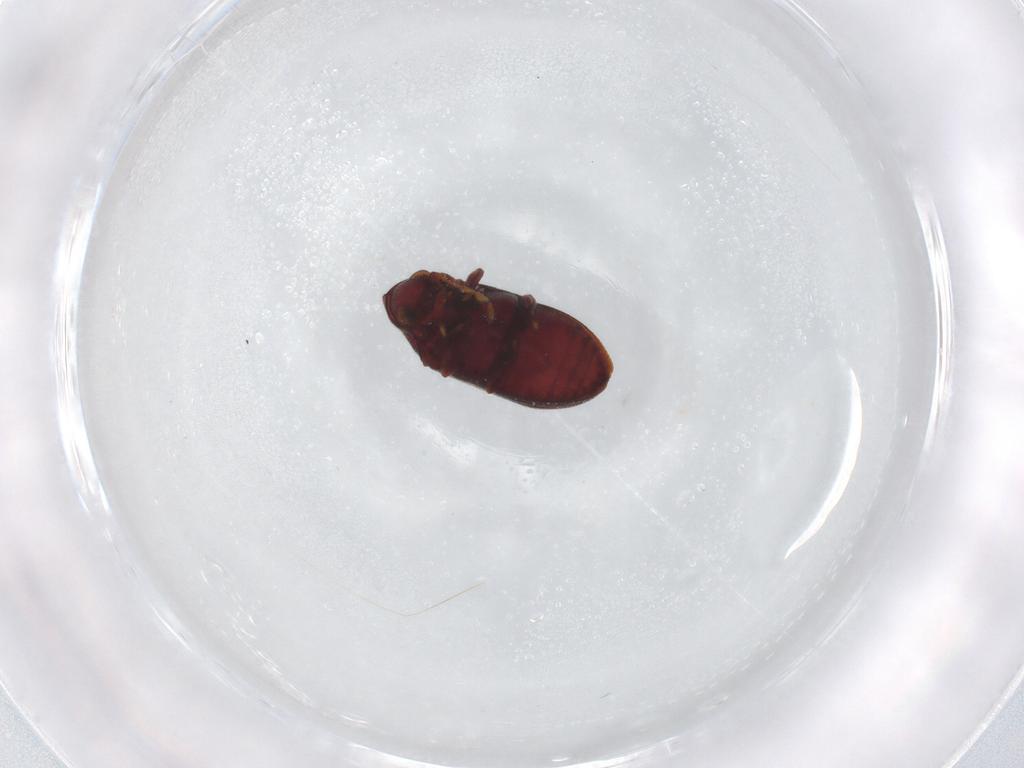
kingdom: Animalia
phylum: Arthropoda
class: Insecta
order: Coleoptera
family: Ptinidae
